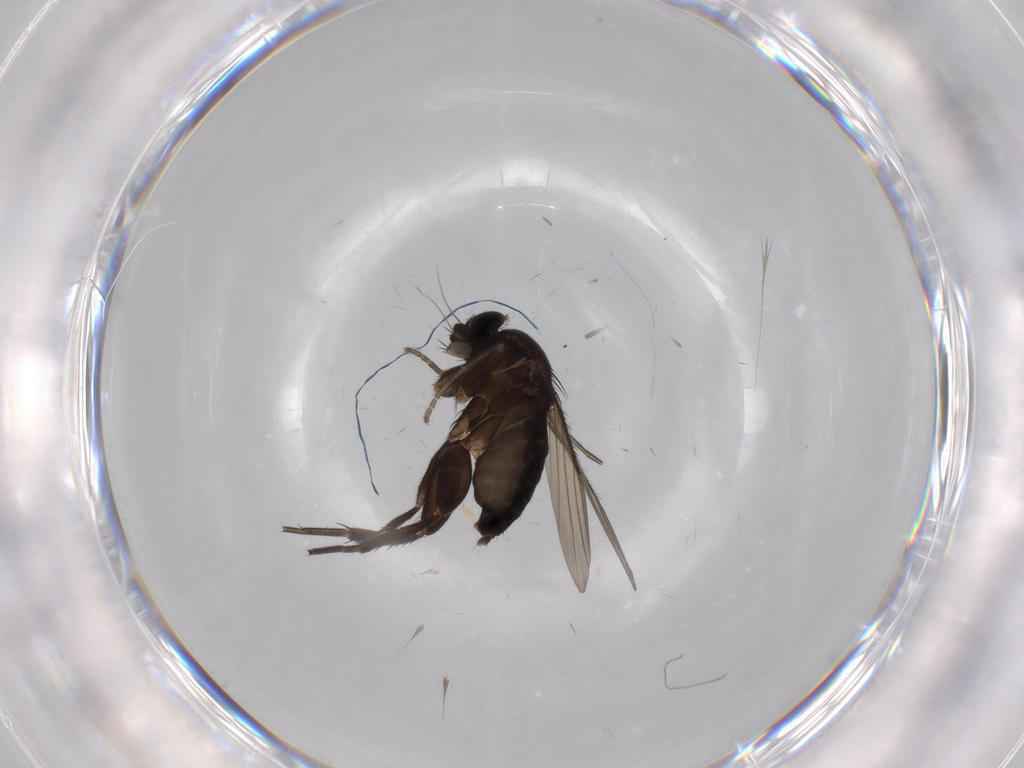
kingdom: Animalia
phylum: Arthropoda
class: Insecta
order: Diptera
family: Phoridae
